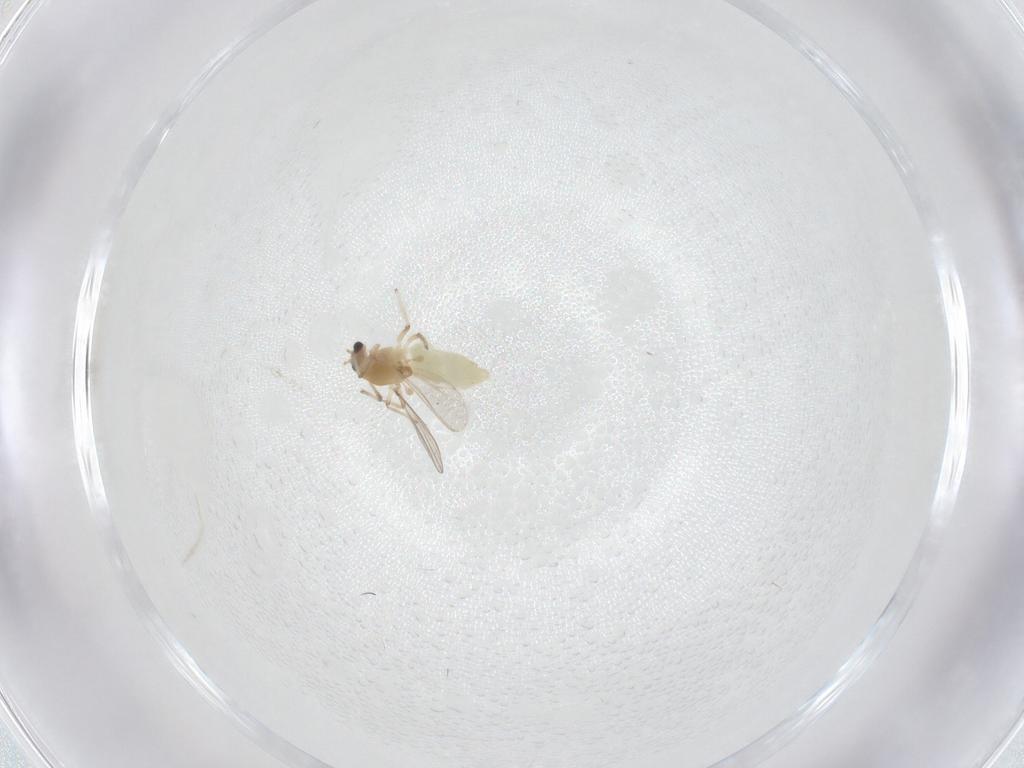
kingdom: Animalia
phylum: Arthropoda
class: Insecta
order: Diptera
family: Chironomidae
